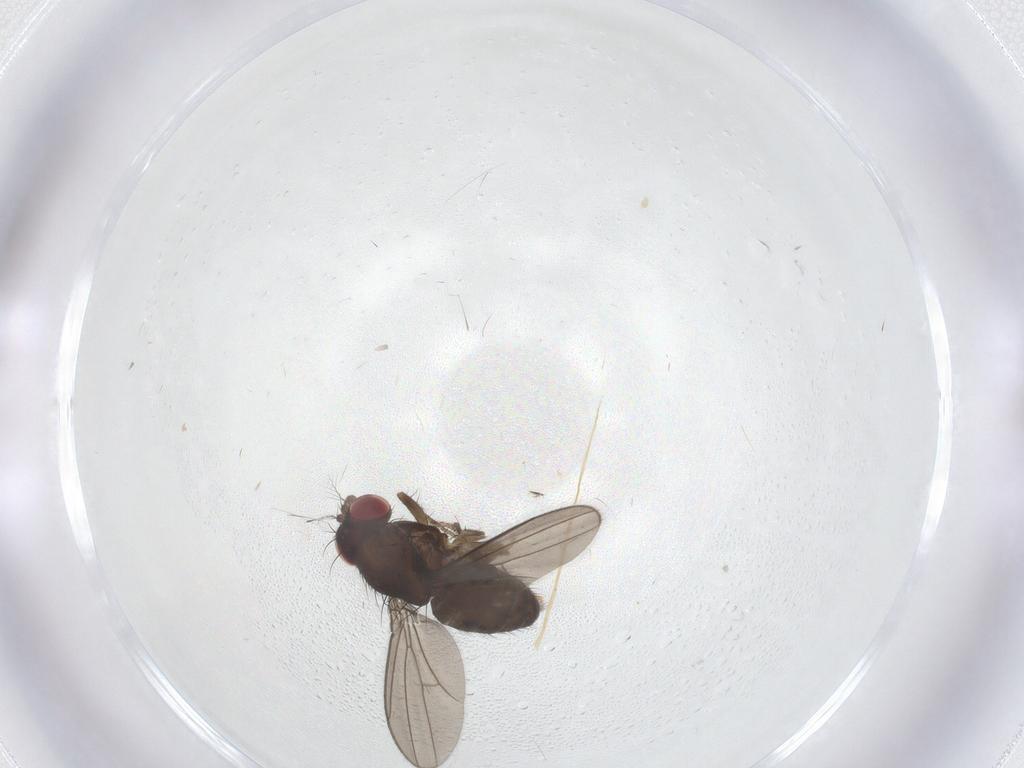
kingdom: Animalia
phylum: Arthropoda
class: Insecta
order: Diptera
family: Drosophilidae
